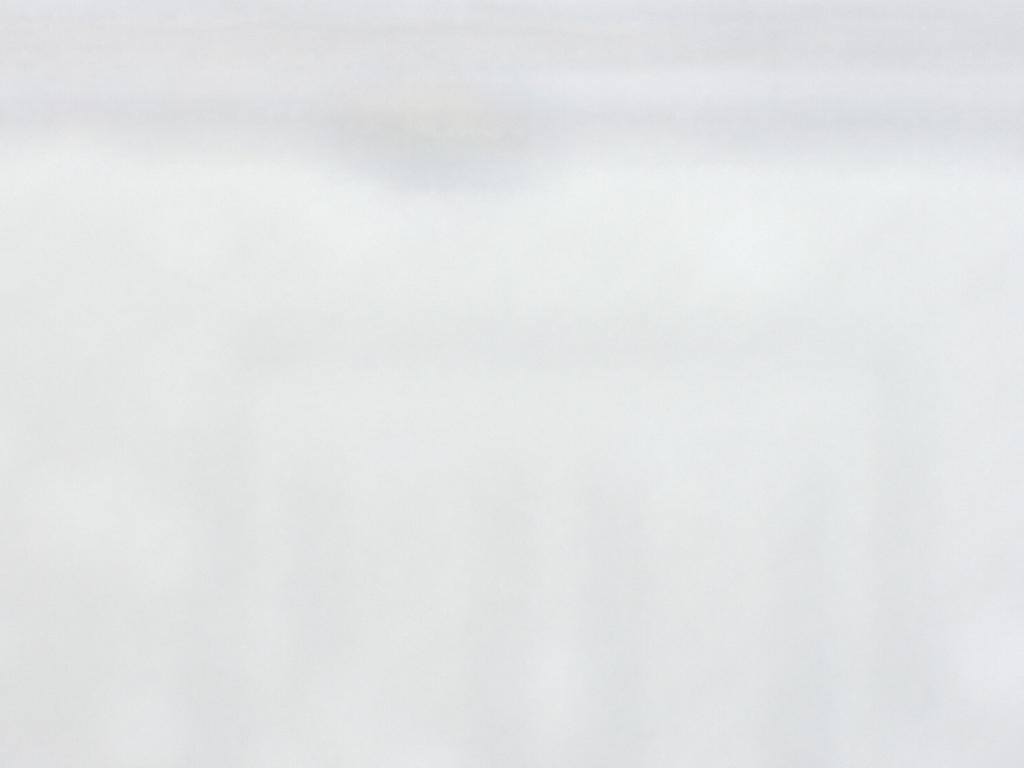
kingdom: Animalia
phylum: Arthropoda
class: Insecta
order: Diptera
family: Cecidomyiidae
